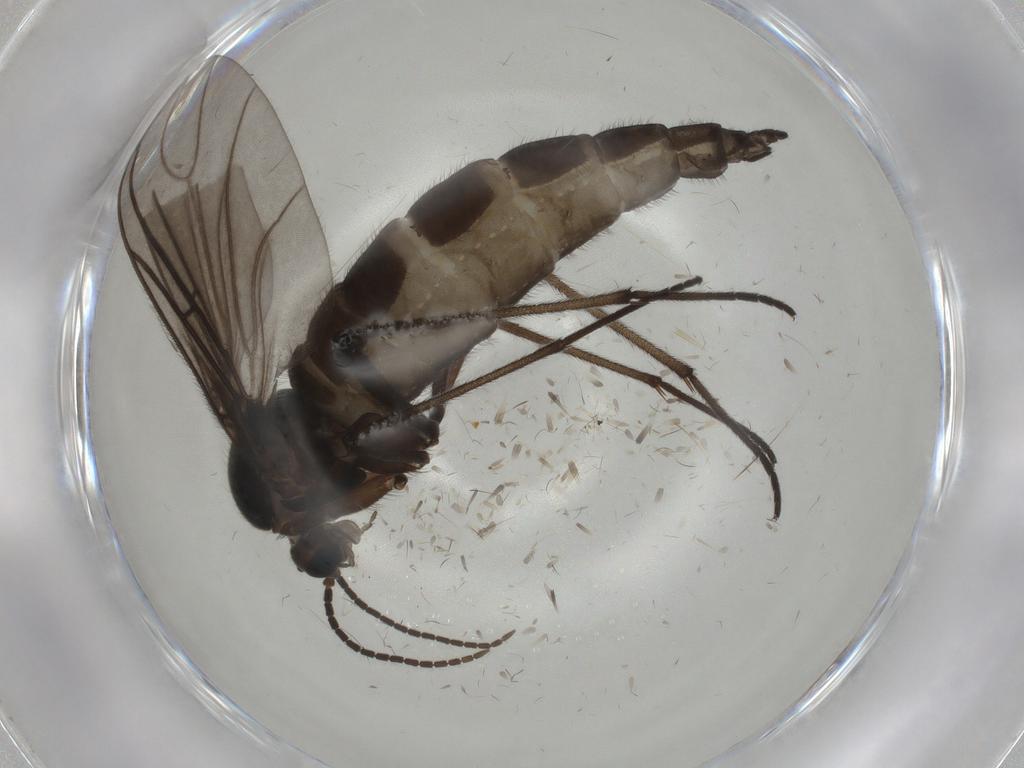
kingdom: Animalia
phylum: Arthropoda
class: Insecta
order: Diptera
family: Sciaridae
